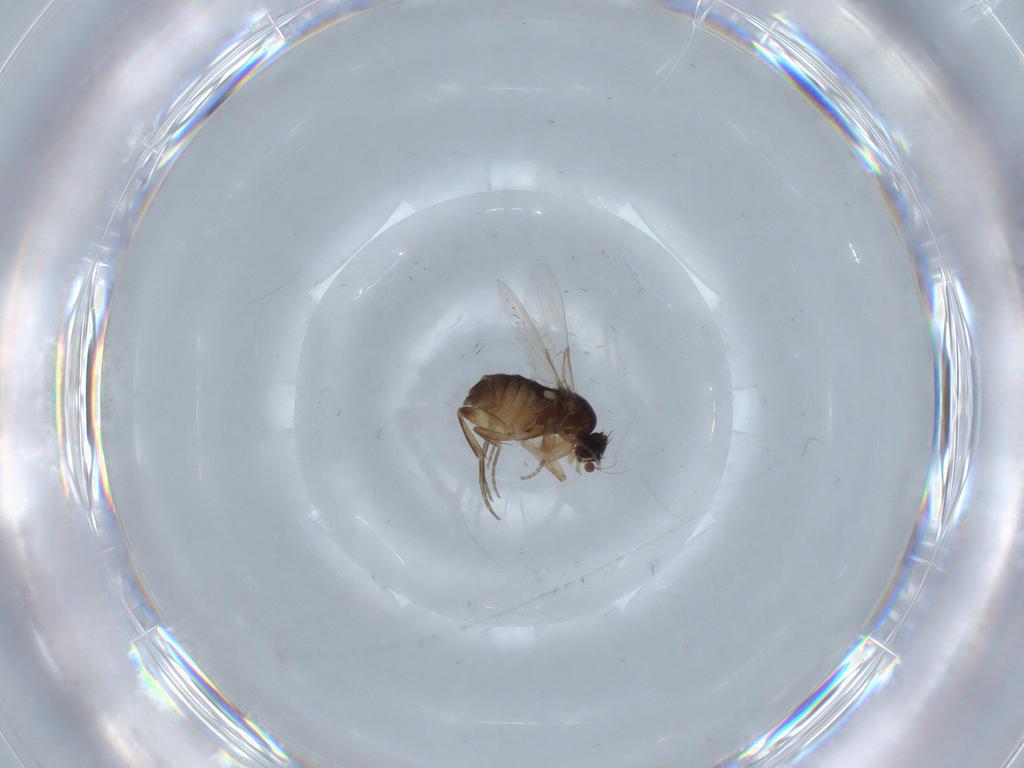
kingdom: Animalia
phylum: Arthropoda
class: Insecta
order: Diptera
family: Phoridae
